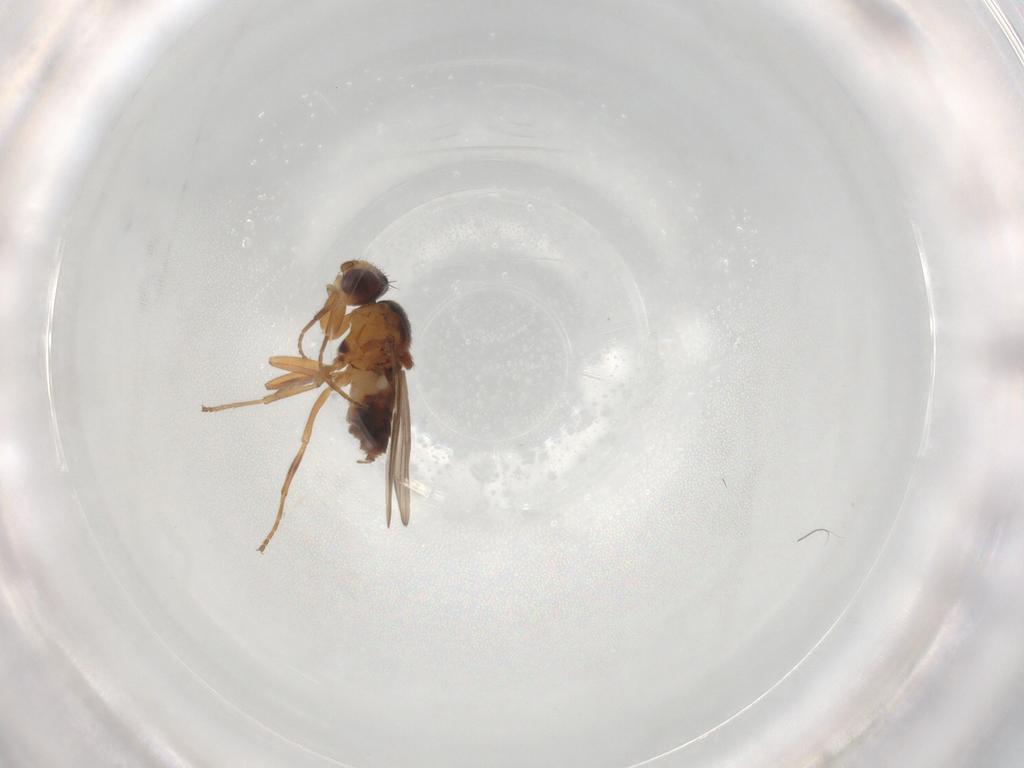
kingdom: Animalia
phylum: Arthropoda
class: Insecta
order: Diptera
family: Chloropidae
